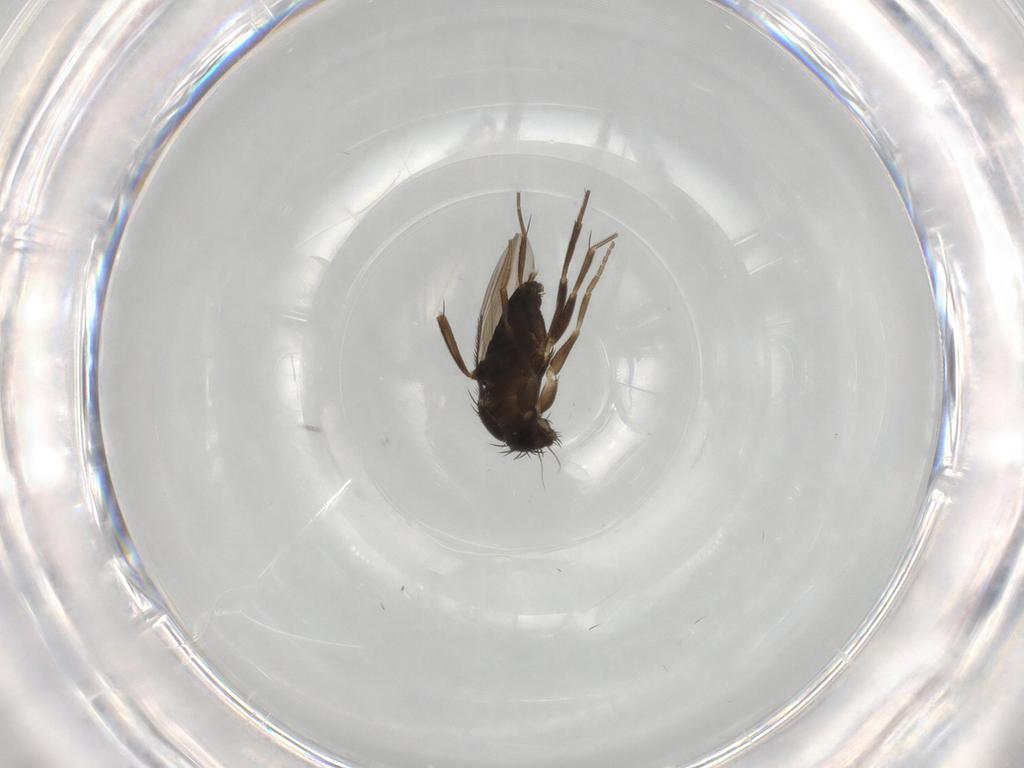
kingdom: Animalia
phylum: Arthropoda
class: Insecta
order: Diptera
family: Phoridae
